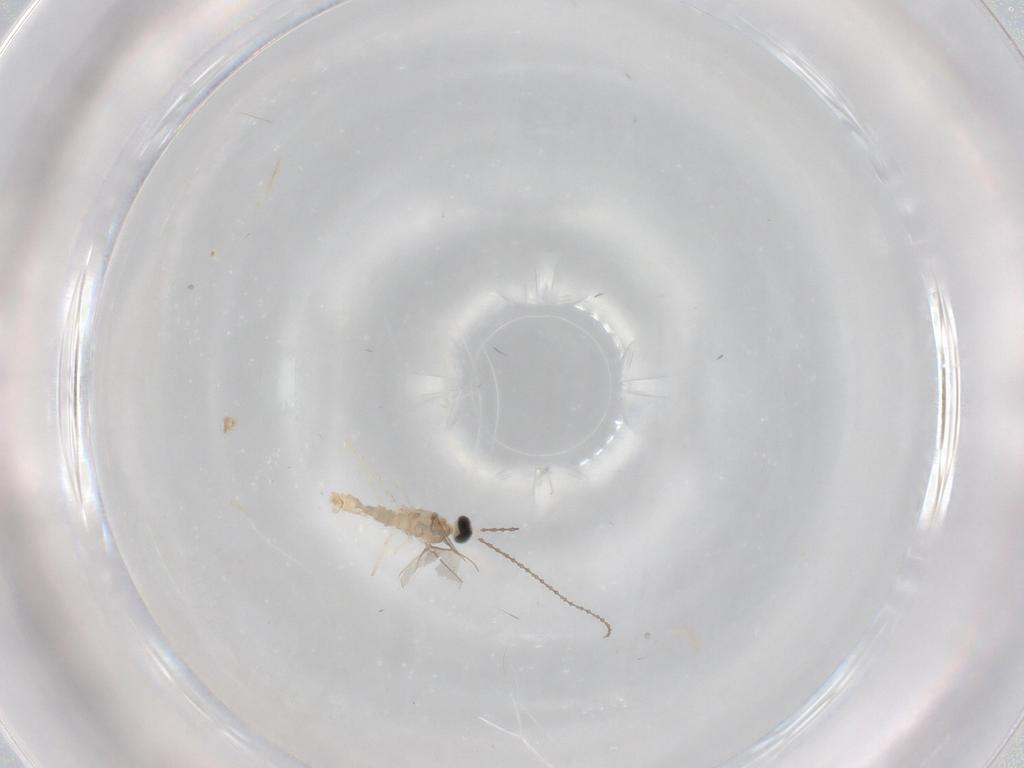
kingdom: Animalia
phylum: Arthropoda
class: Insecta
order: Diptera
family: Cecidomyiidae
